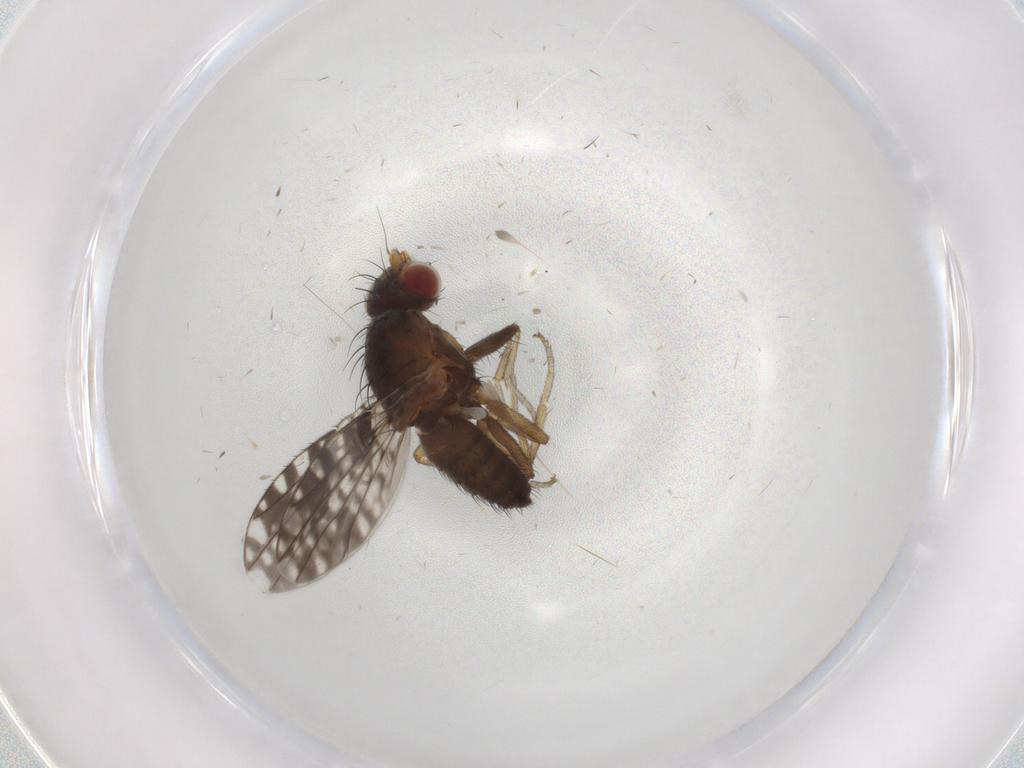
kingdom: Animalia
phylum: Arthropoda
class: Insecta
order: Diptera
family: Tephritidae
